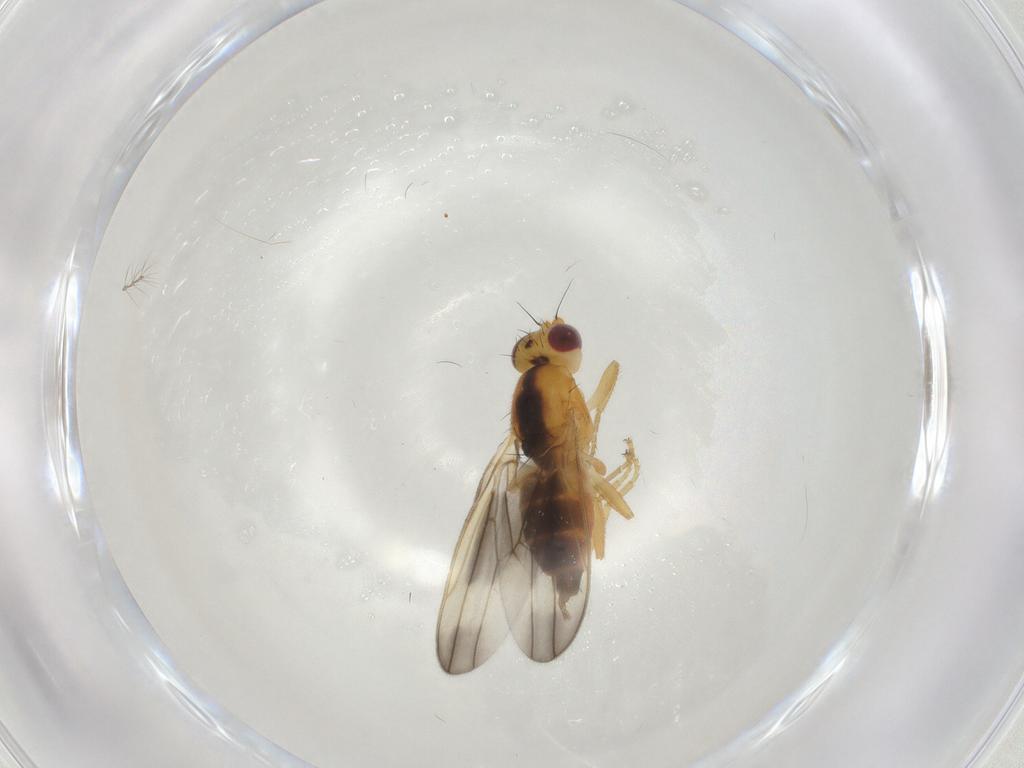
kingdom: Animalia
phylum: Arthropoda
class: Insecta
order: Diptera
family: Neurochaetidae
